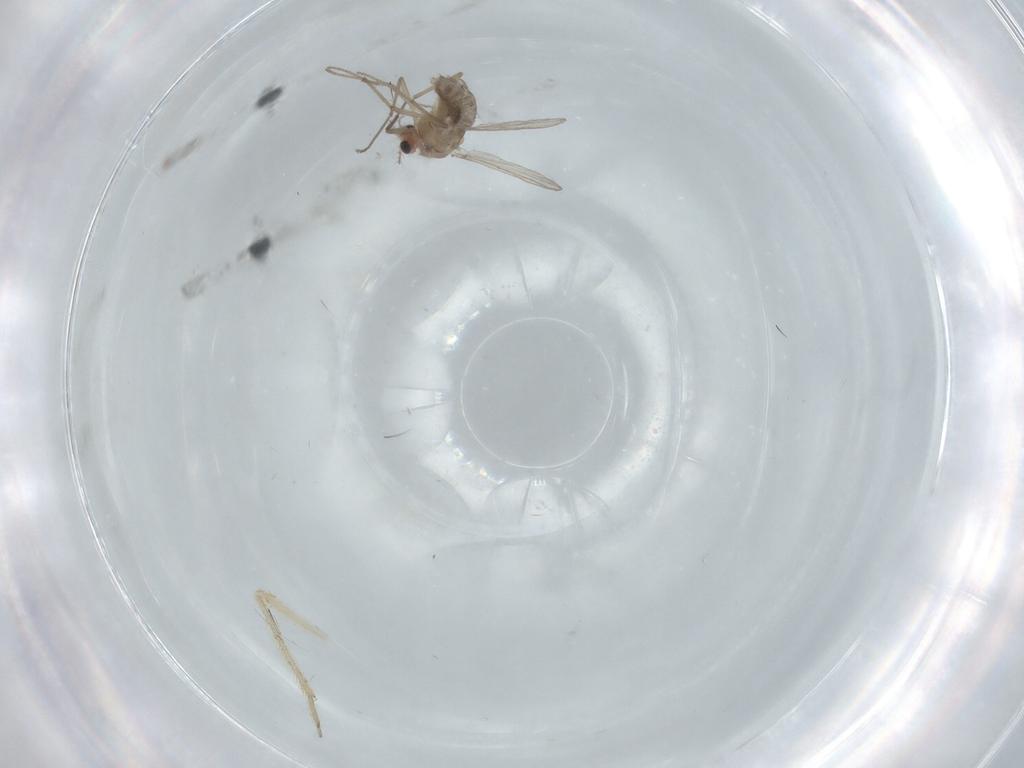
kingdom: Animalia
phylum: Arthropoda
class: Insecta
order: Diptera
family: Chironomidae
